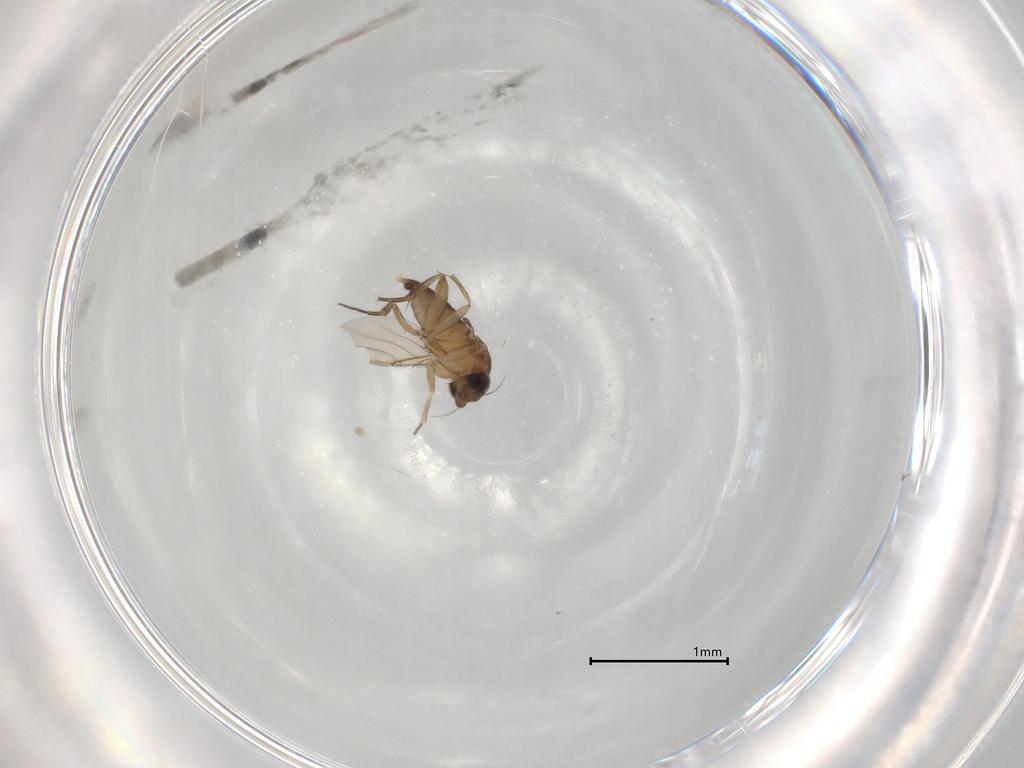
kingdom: Animalia
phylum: Arthropoda
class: Insecta
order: Diptera
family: Phoridae
